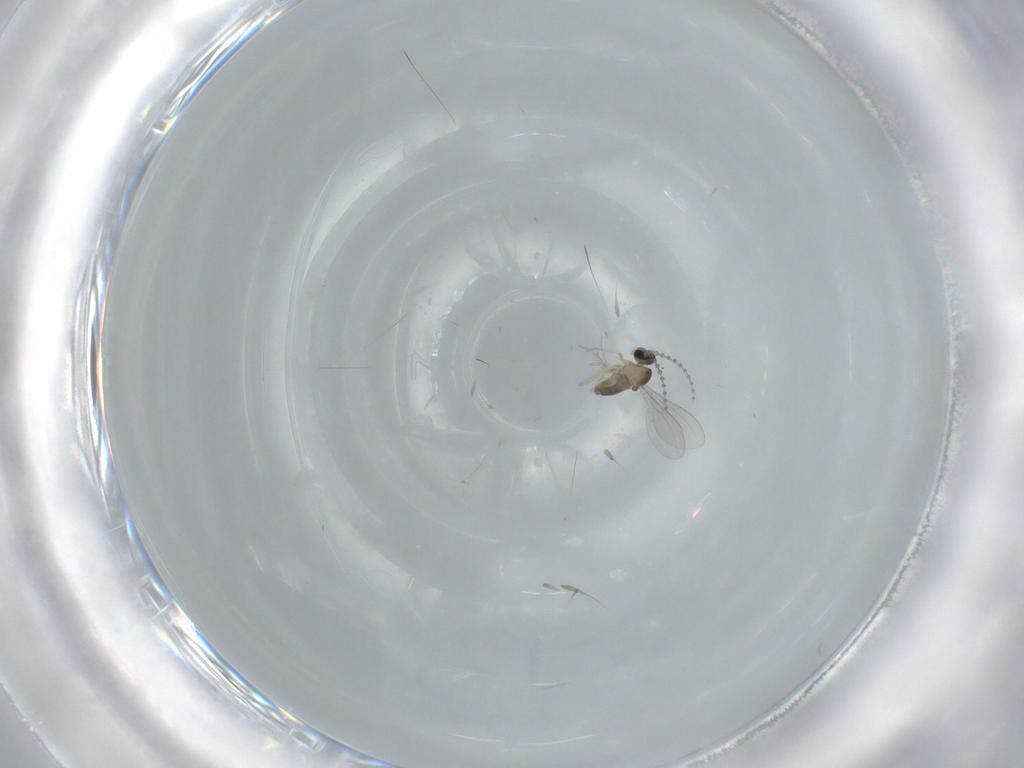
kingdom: Animalia
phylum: Arthropoda
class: Insecta
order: Diptera
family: Cecidomyiidae
